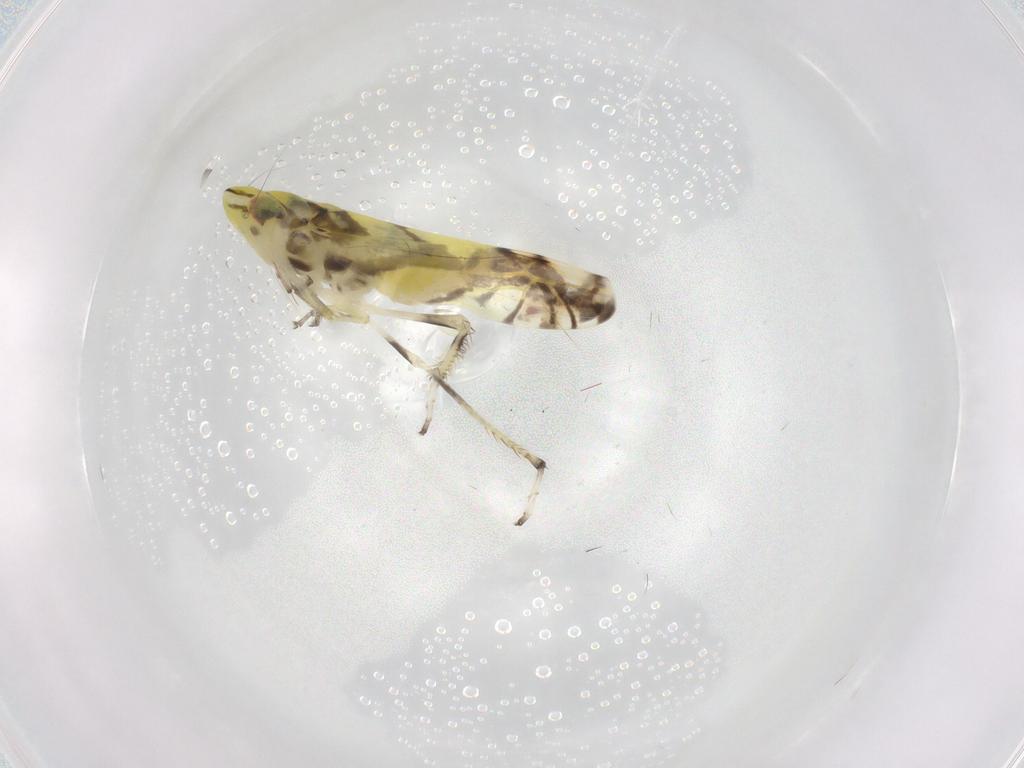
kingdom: Animalia
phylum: Arthropoda
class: Insecta
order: Hemiptera
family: Cicadellidae
